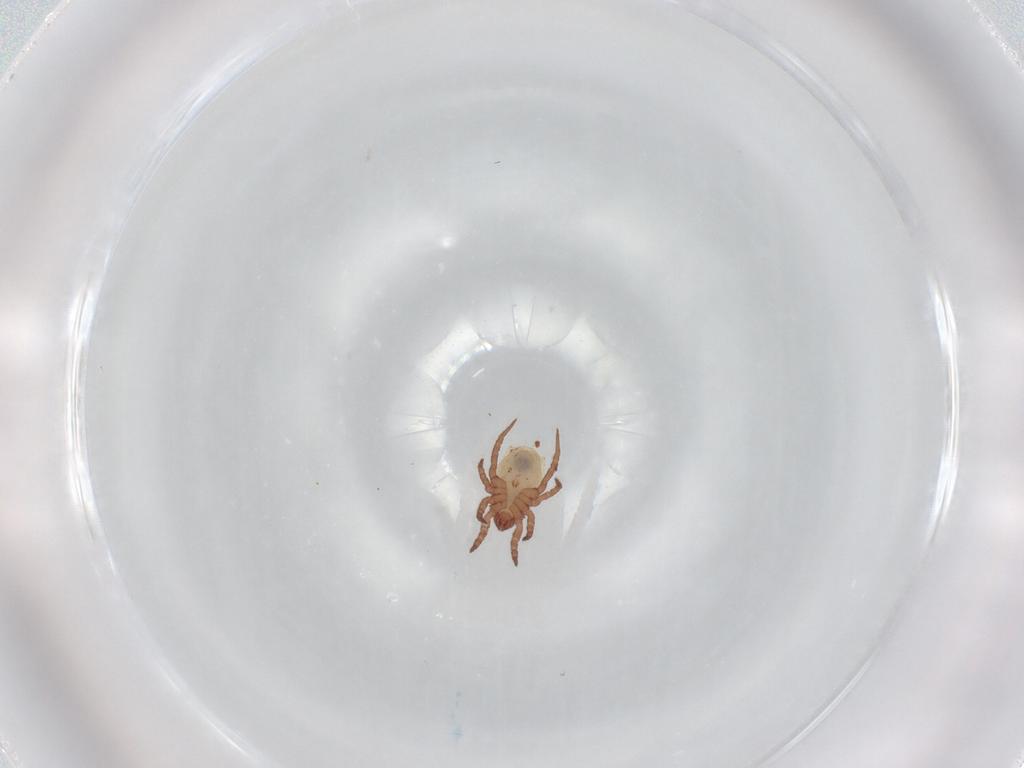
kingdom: Animalia
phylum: Arthropoda
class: Arachnida
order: Sarcoptiformes
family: Nothridae
